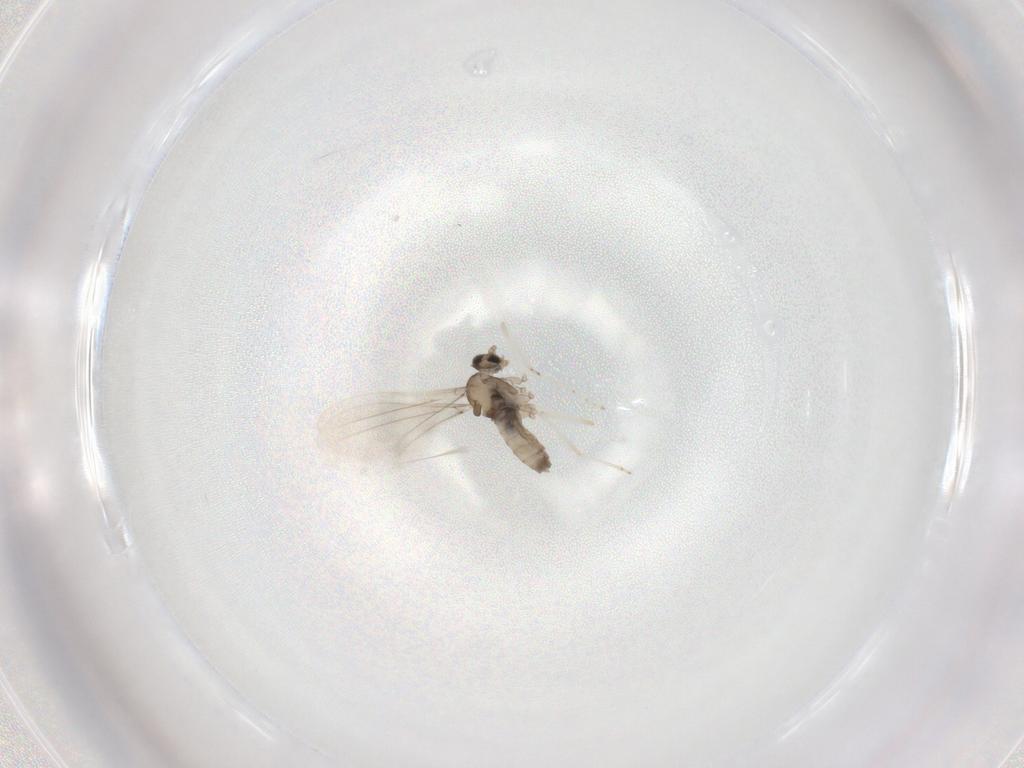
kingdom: Animalia
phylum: Arthropoda
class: Insecta
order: Diptera
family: Cecidomyiidae
